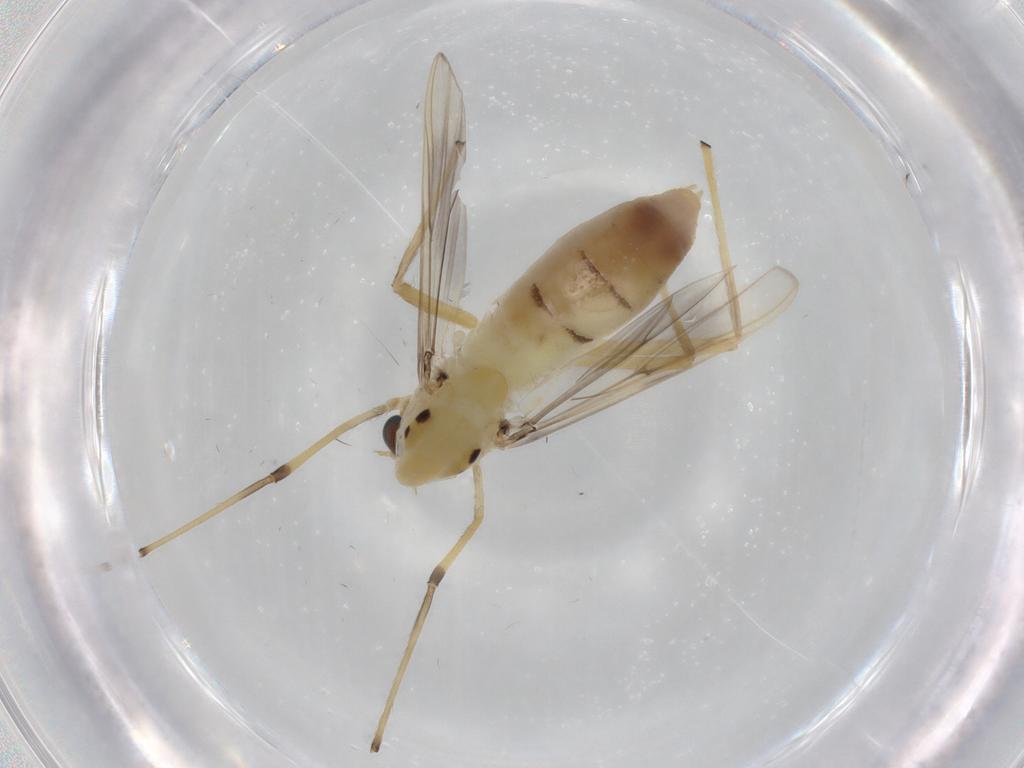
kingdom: Animalia
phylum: Arthropoda
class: Insecta
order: Diptera
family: Chironomidae
